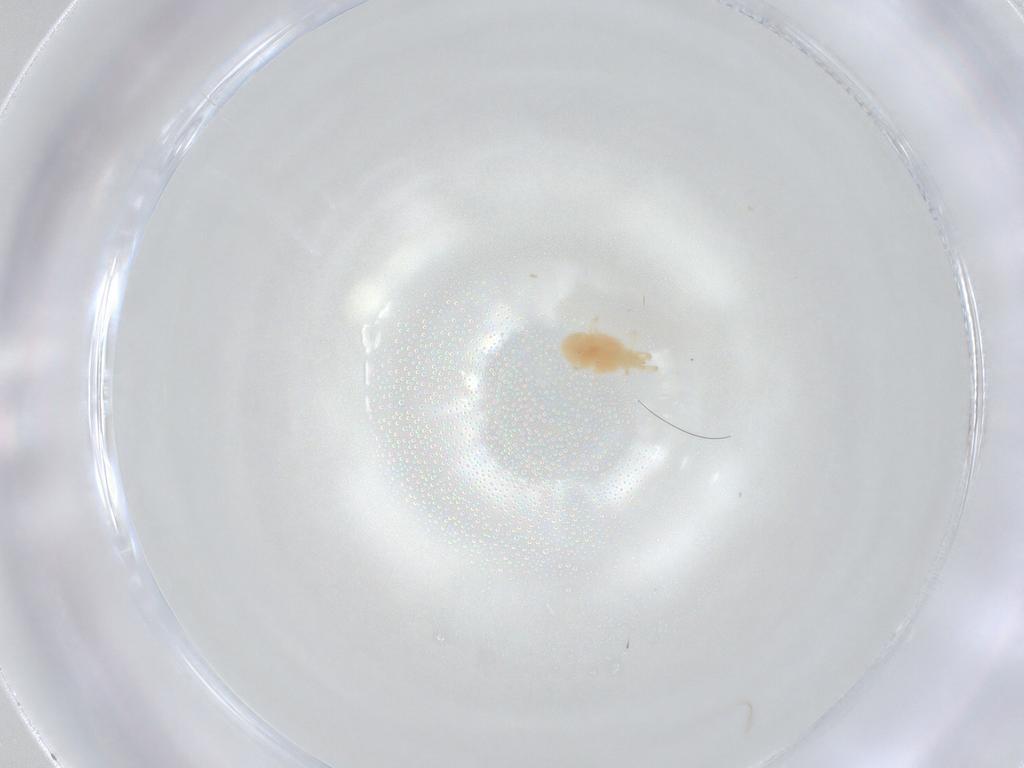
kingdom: Animalia
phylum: Arthropoda
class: Arachnida
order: Trombidiformes
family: Erythraeidae
